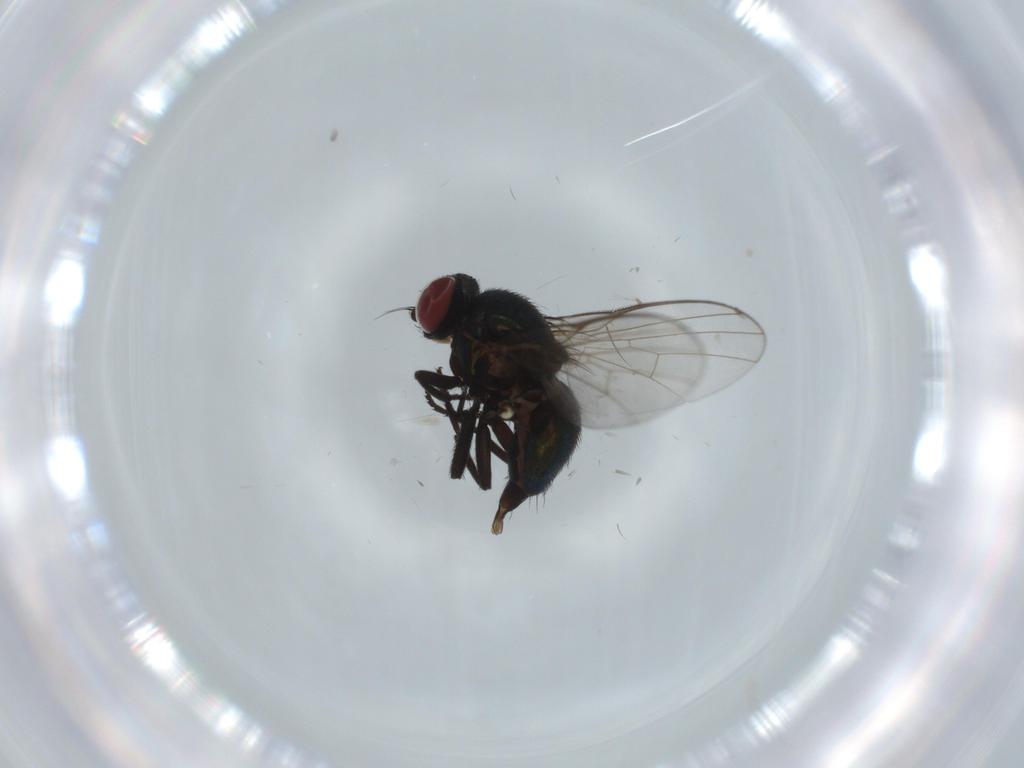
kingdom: Animalia
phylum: Arthropoda
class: Insecta
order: Diptera
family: Agromyzidae
